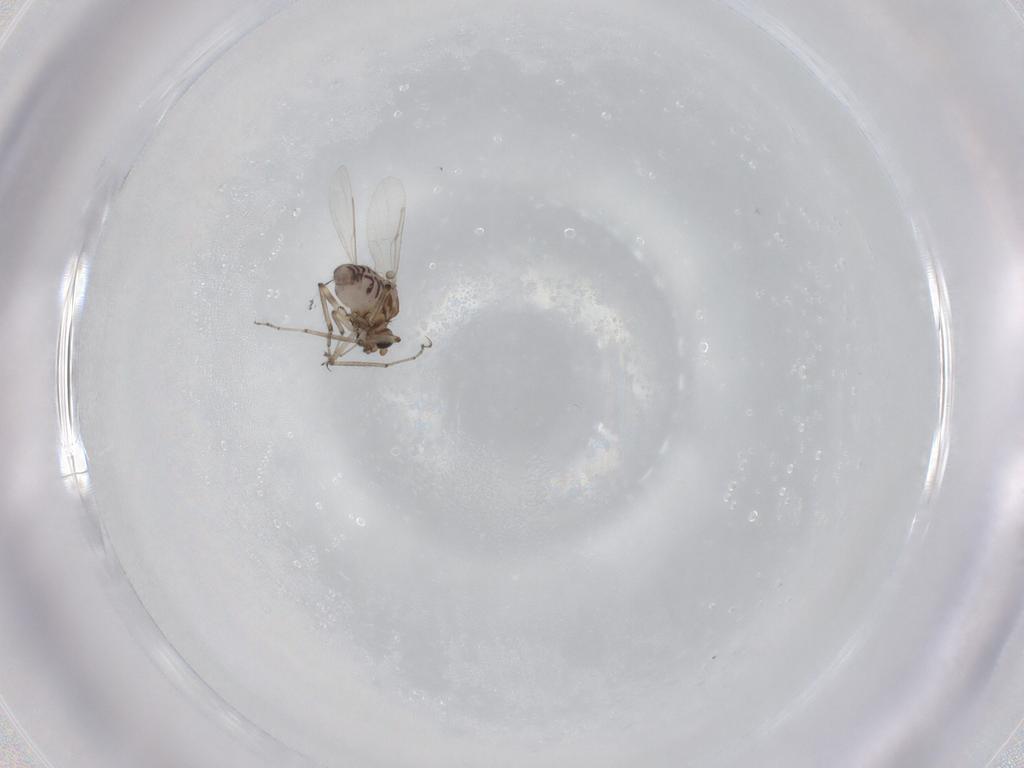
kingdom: Animalia
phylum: Arthropoda
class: Insecta
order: Diptera
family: Ceratopogonidae
